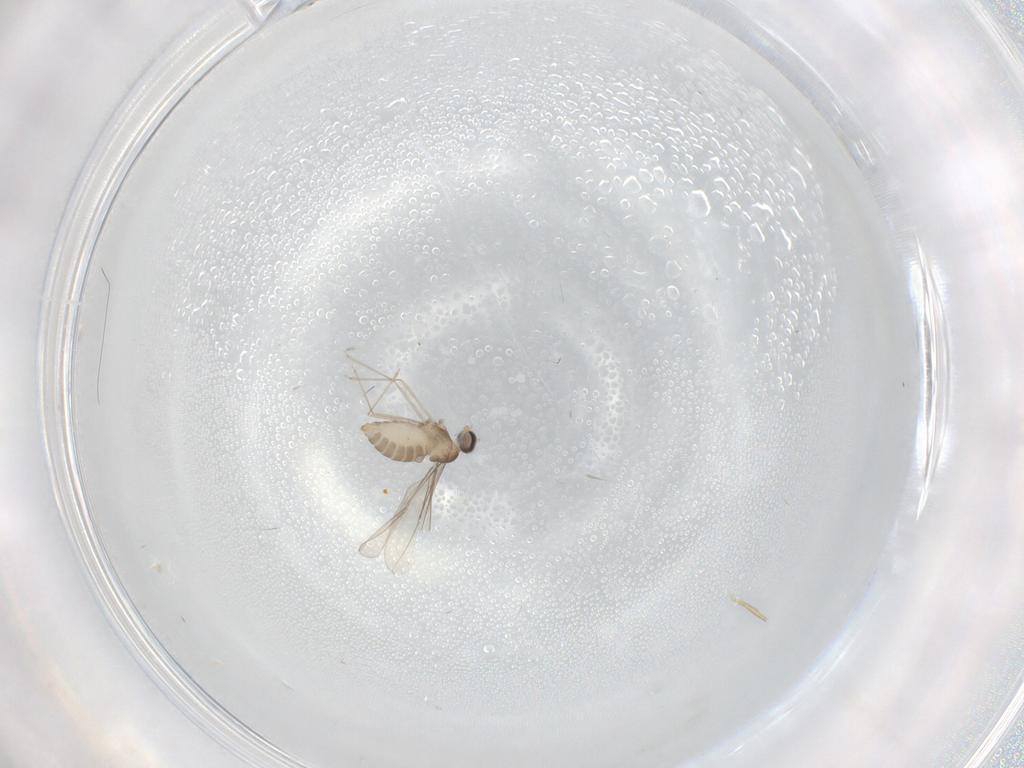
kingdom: Animalia
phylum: Arthropoda
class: Insecta
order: Diptera
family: Cecidomyiidae
